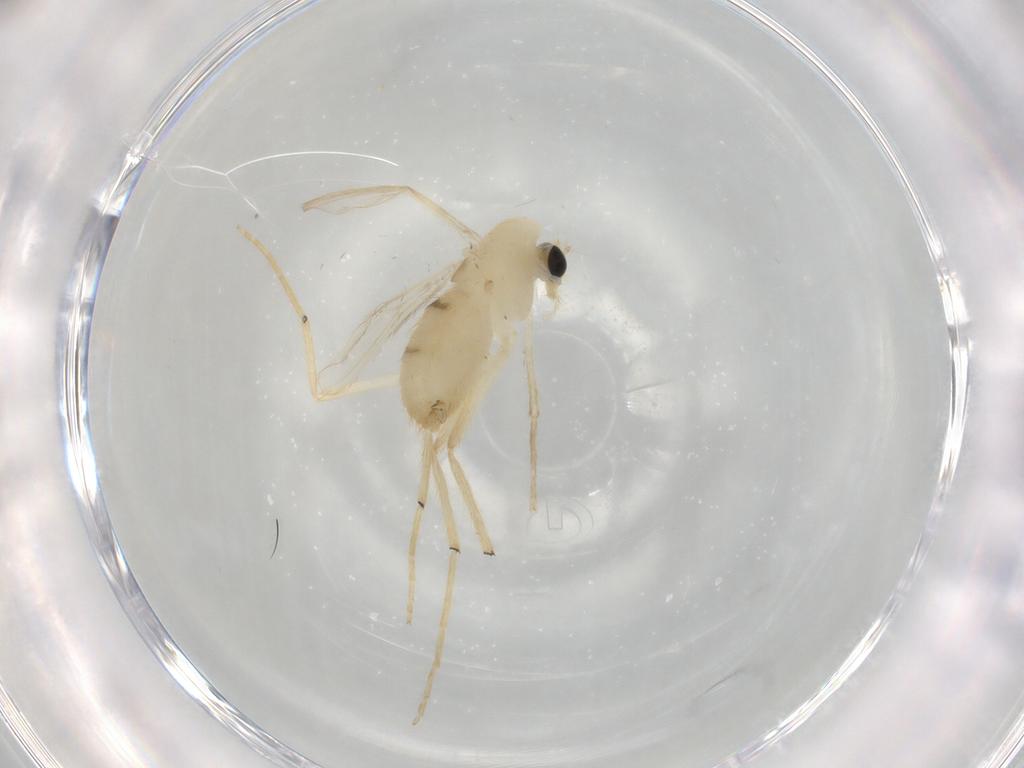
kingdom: Animalia
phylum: Arthropoda
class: Insecta
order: Diptera
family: Chironomidae
